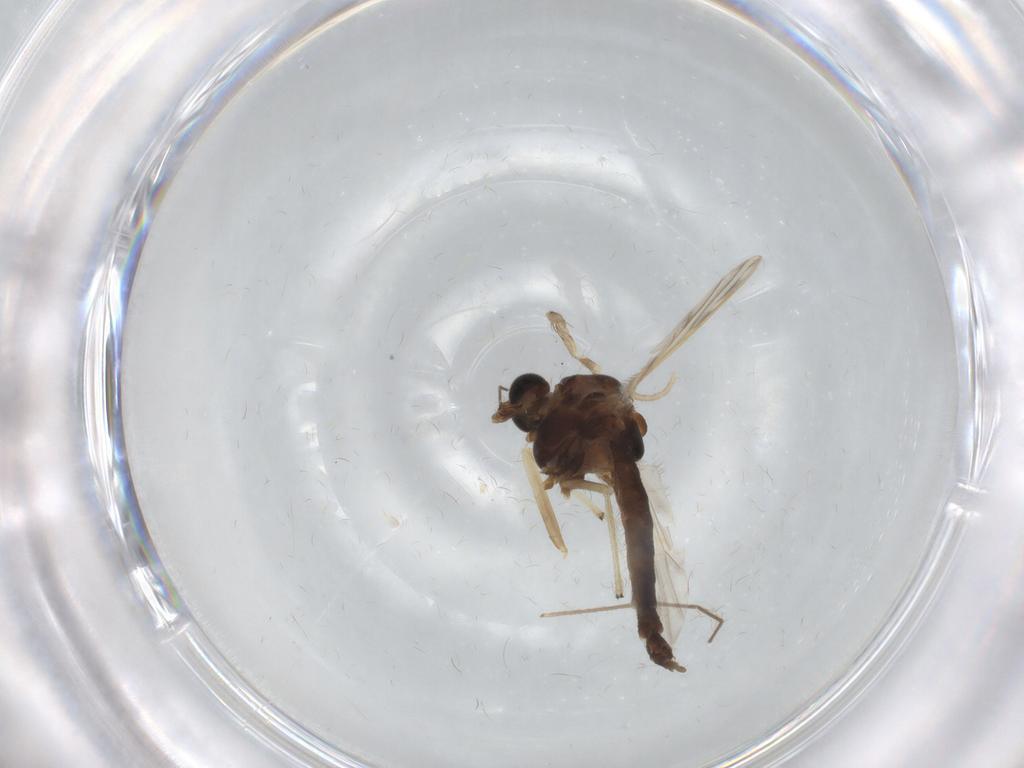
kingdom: Animalia
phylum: Arthropoda
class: Insecta
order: Diptera
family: Chironomidae
